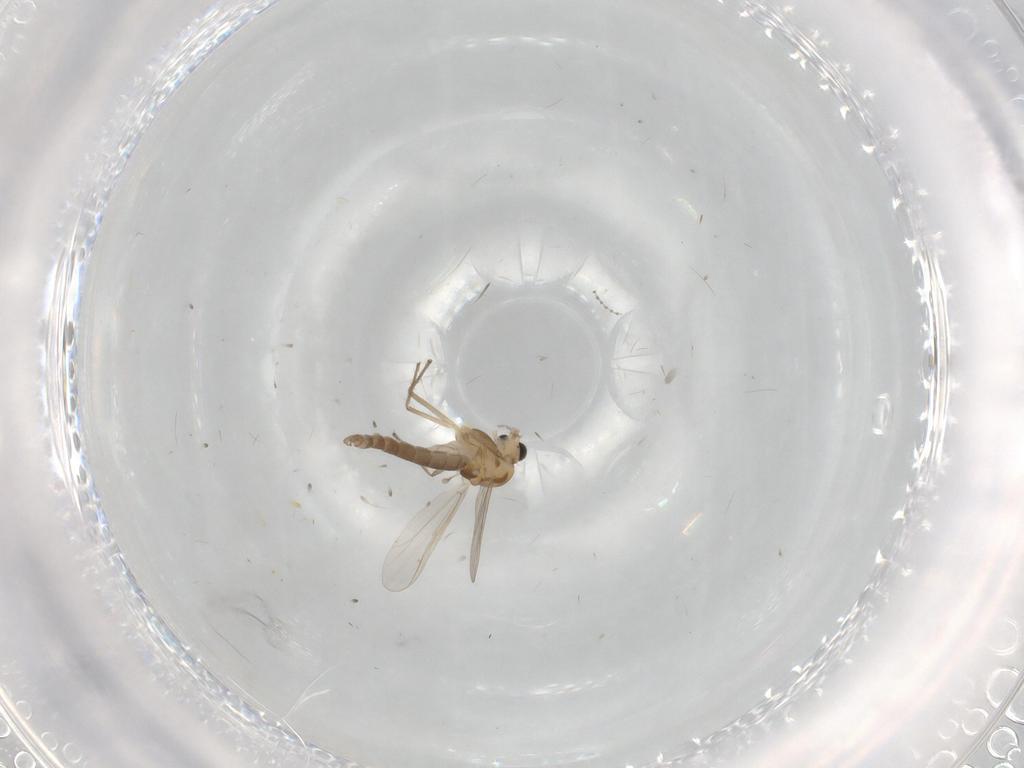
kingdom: Animalia
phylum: Arthropoda
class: Insecta
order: Diptera
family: Chironomidae
